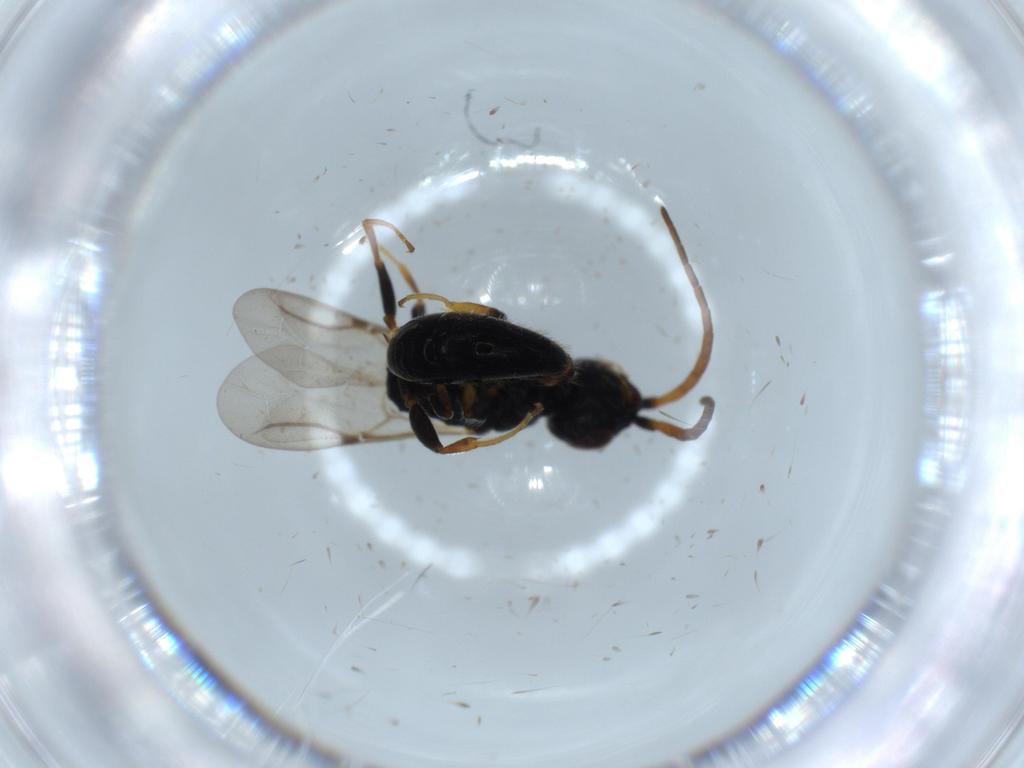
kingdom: Animalia
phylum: Arthropoda
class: Insecta
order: Hymenoptera
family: Bethylidae
